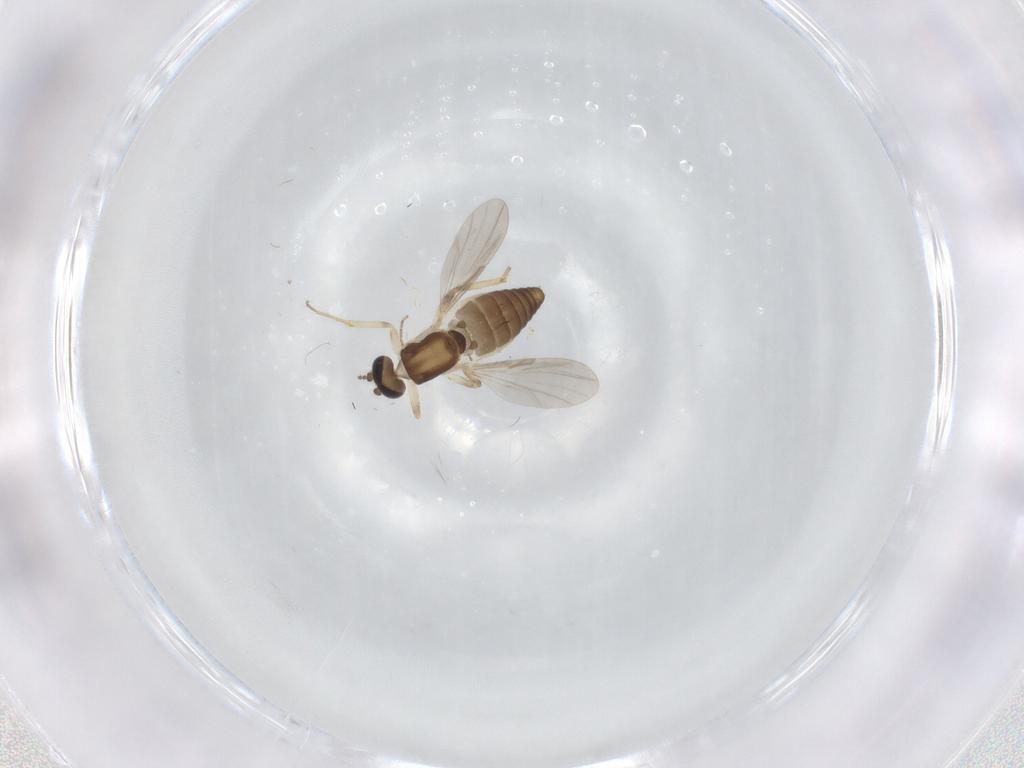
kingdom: Animalia
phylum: Arthropoda
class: Insecta
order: Diptera
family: Ceratopogonidae
